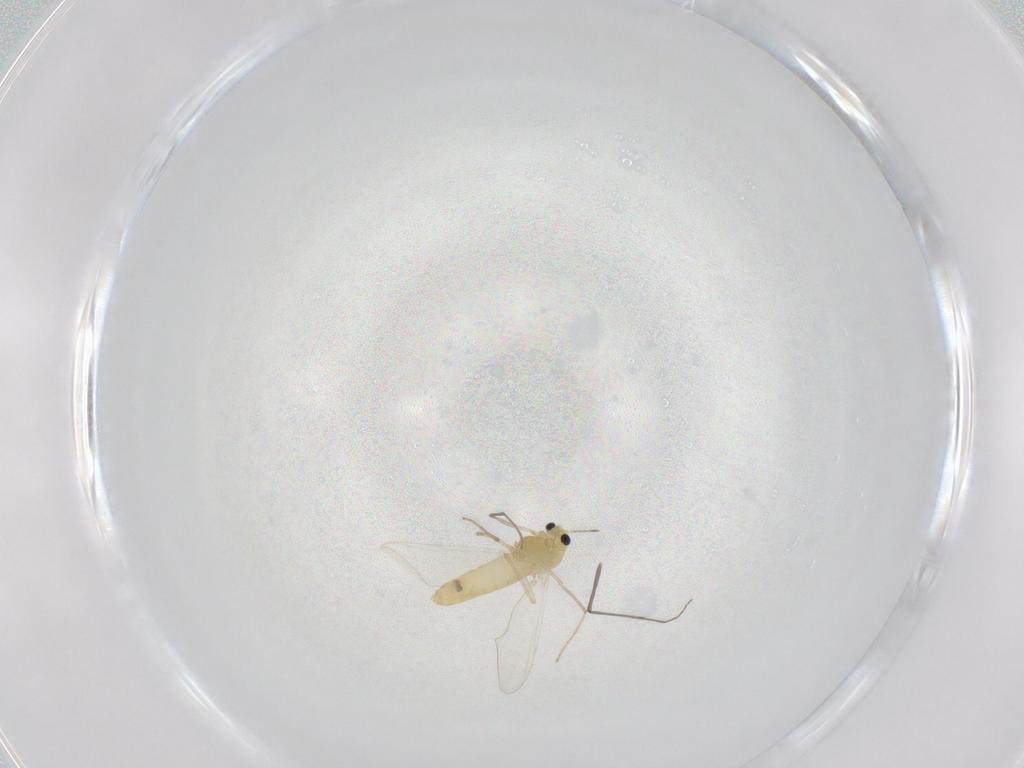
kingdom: Animalia
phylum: Arthropoda
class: Insecta
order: Diptera
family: Chironomidae
